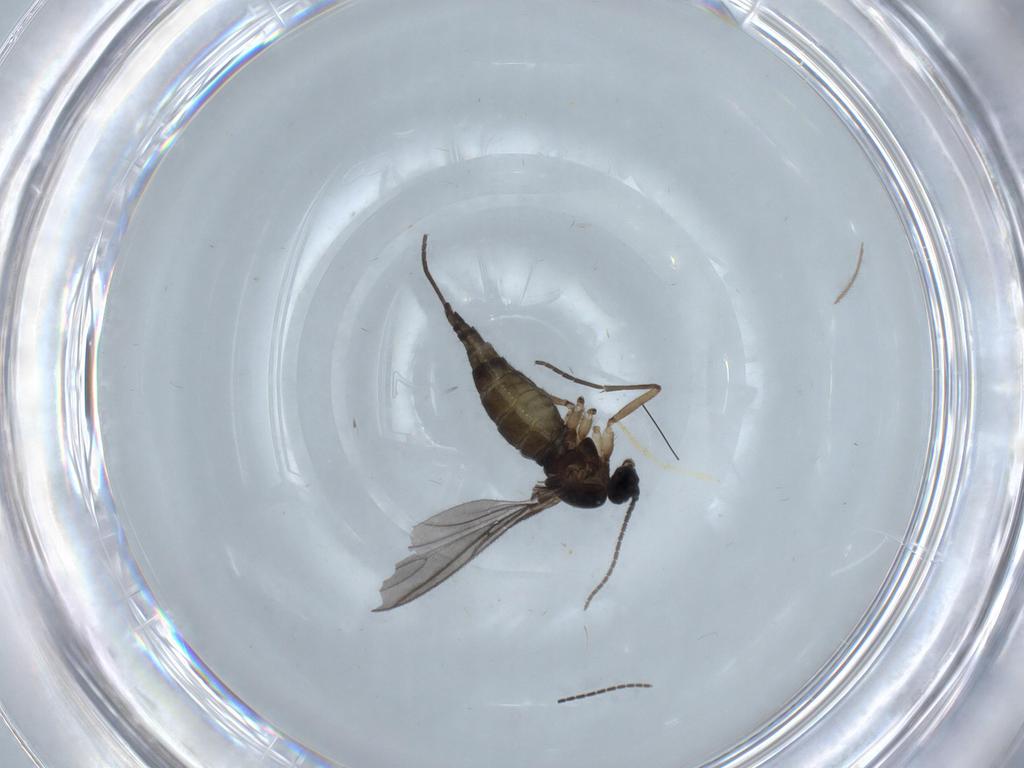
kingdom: Animalia
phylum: Arthropoda
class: Insecta
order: Diptera
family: Sciaridae
